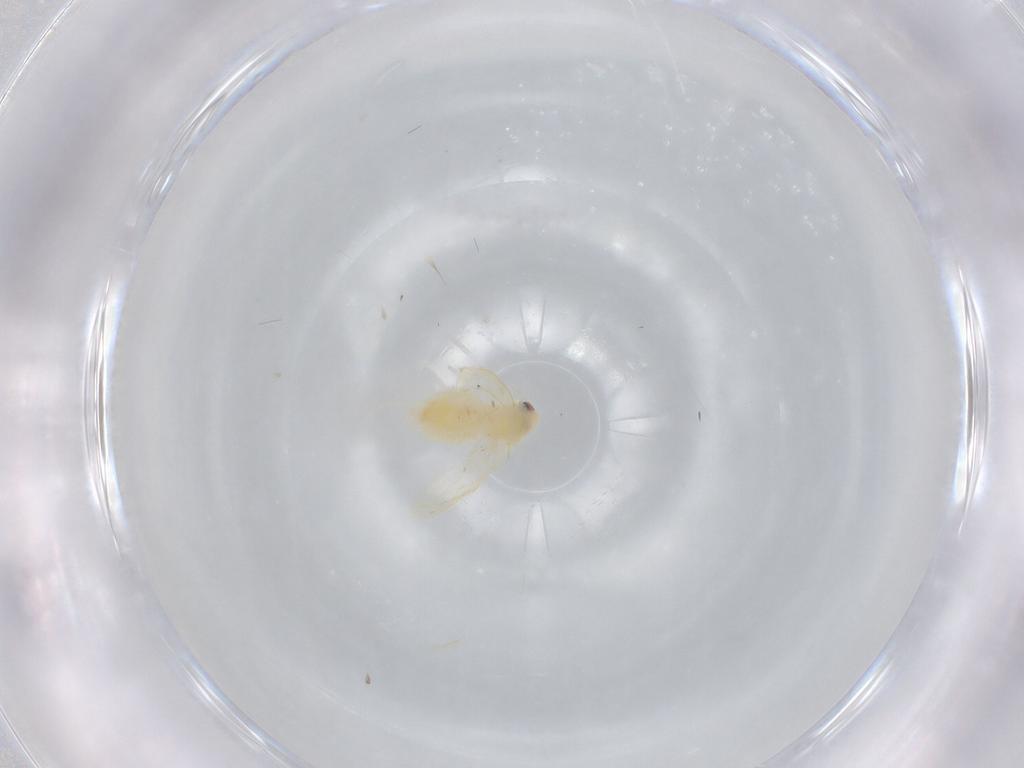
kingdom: Animalia
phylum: Arthropoda
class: Insecta
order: Hemiptera
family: Aleyrodidae
